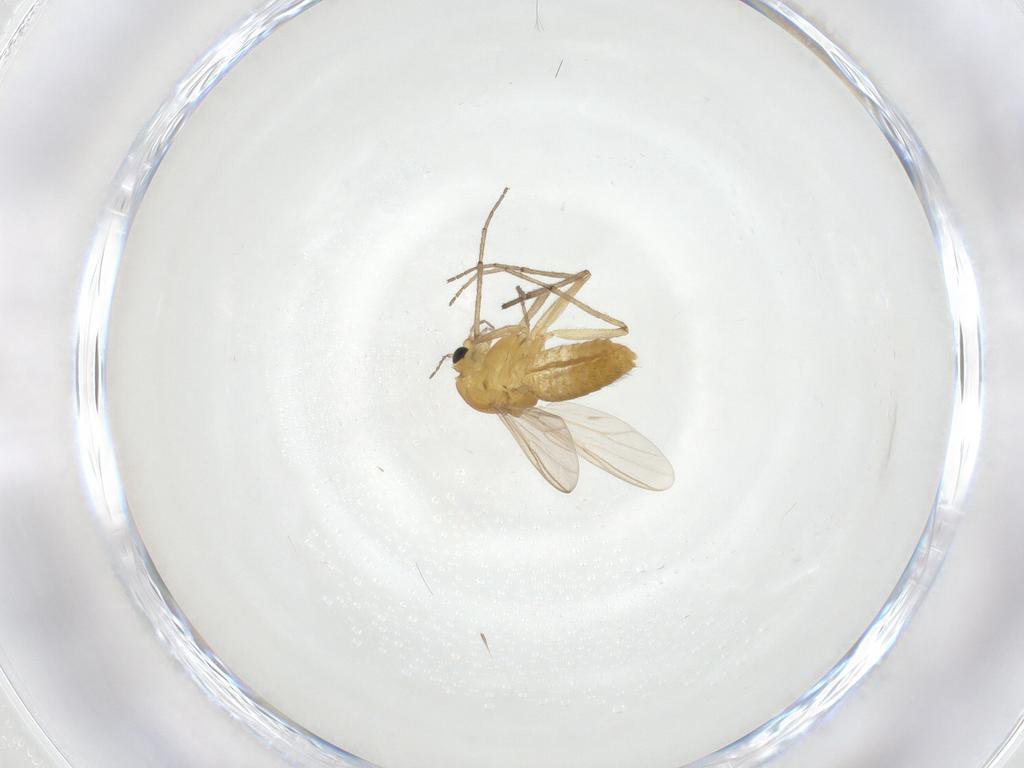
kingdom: Animalia
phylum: Arthropoda
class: Insecta
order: Diptera
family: Chironomidae
